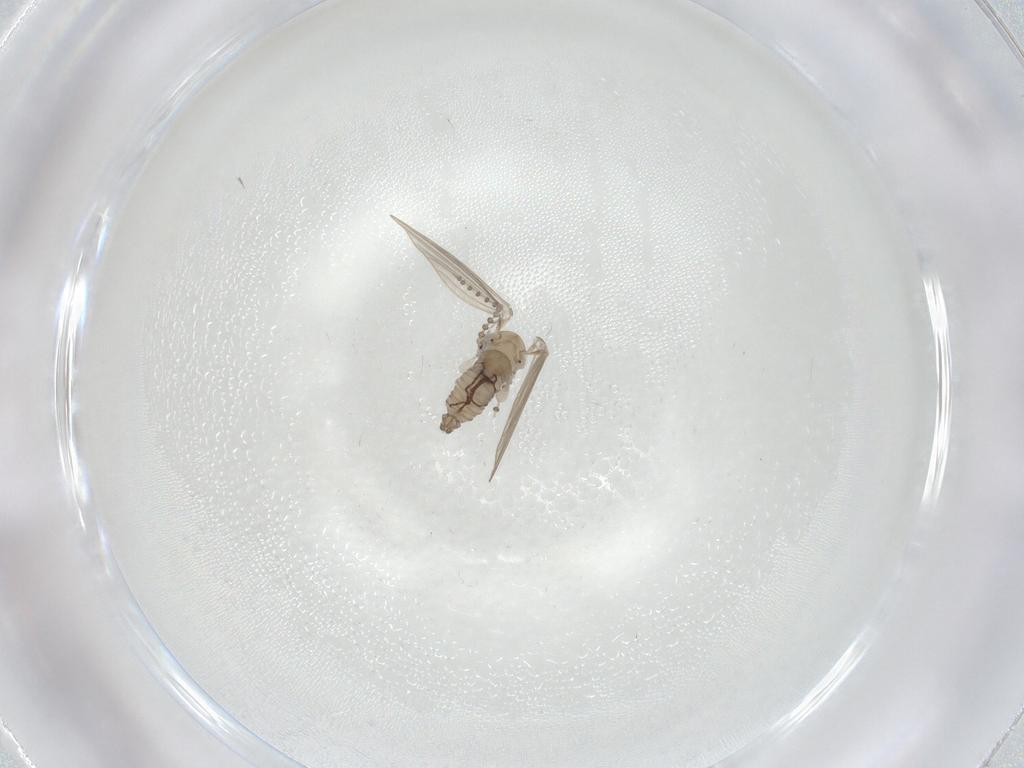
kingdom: Animalia
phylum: Arthropoda
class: Insecta
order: Diptera
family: Psychodidae
